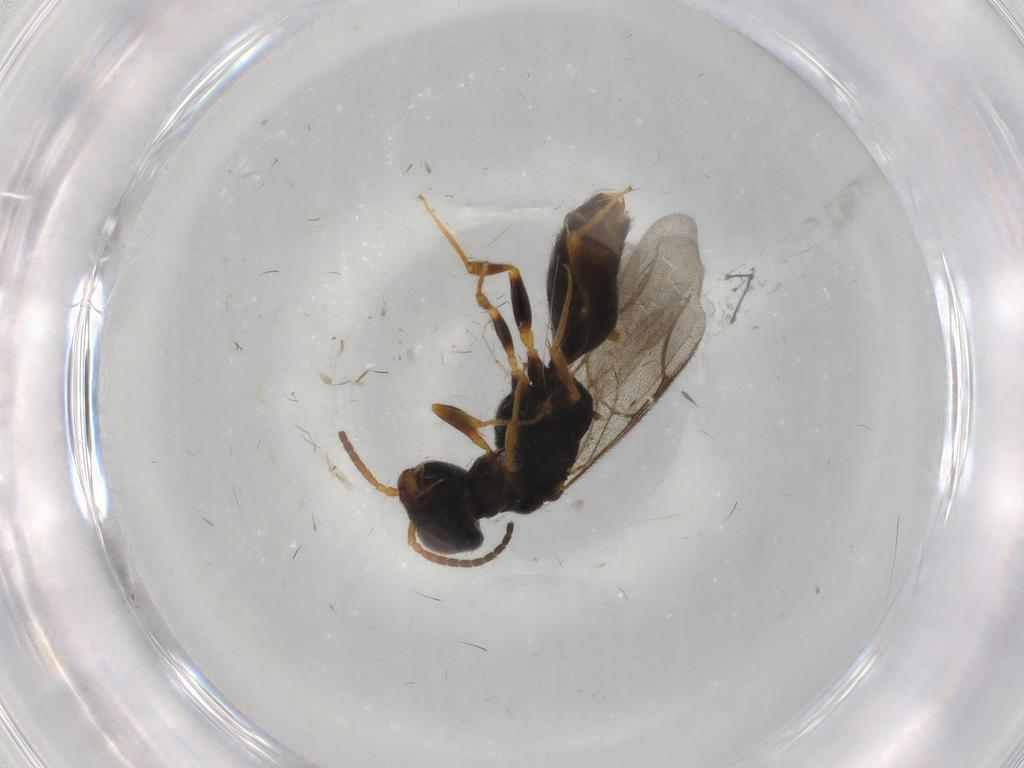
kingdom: Animalia
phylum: Arthropoda
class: Insecta
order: Hymenoptera
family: Bethylidae
